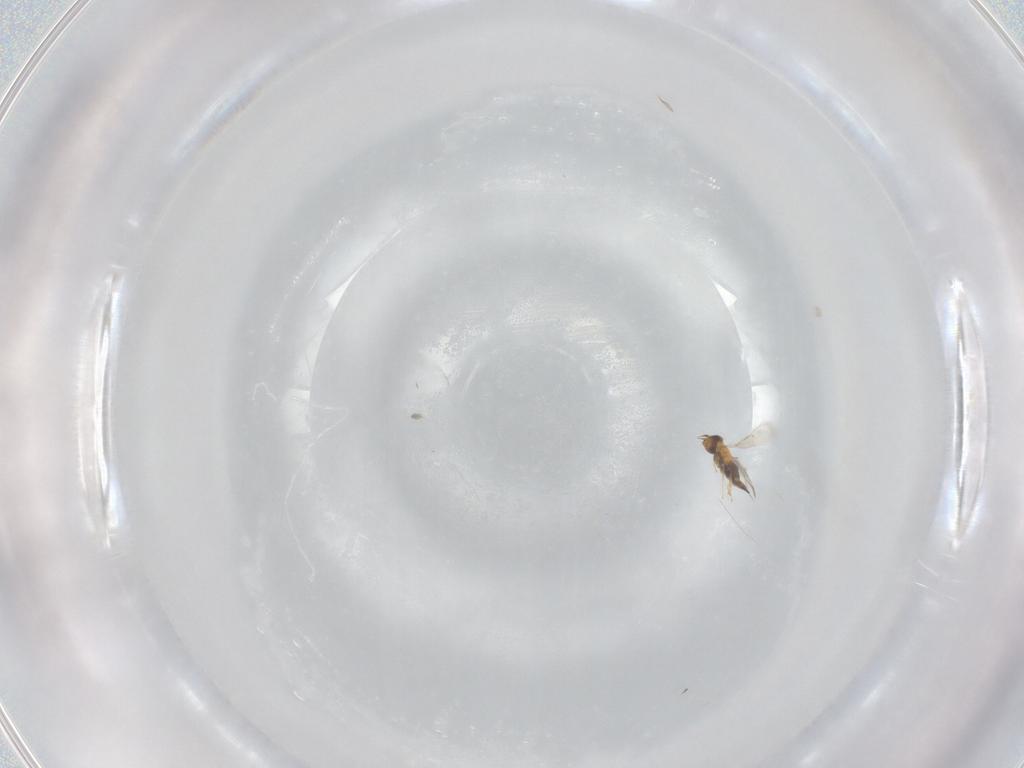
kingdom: Animalia
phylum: Arthropoda
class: Insecta
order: Hymenoptera
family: Aphelinidae
